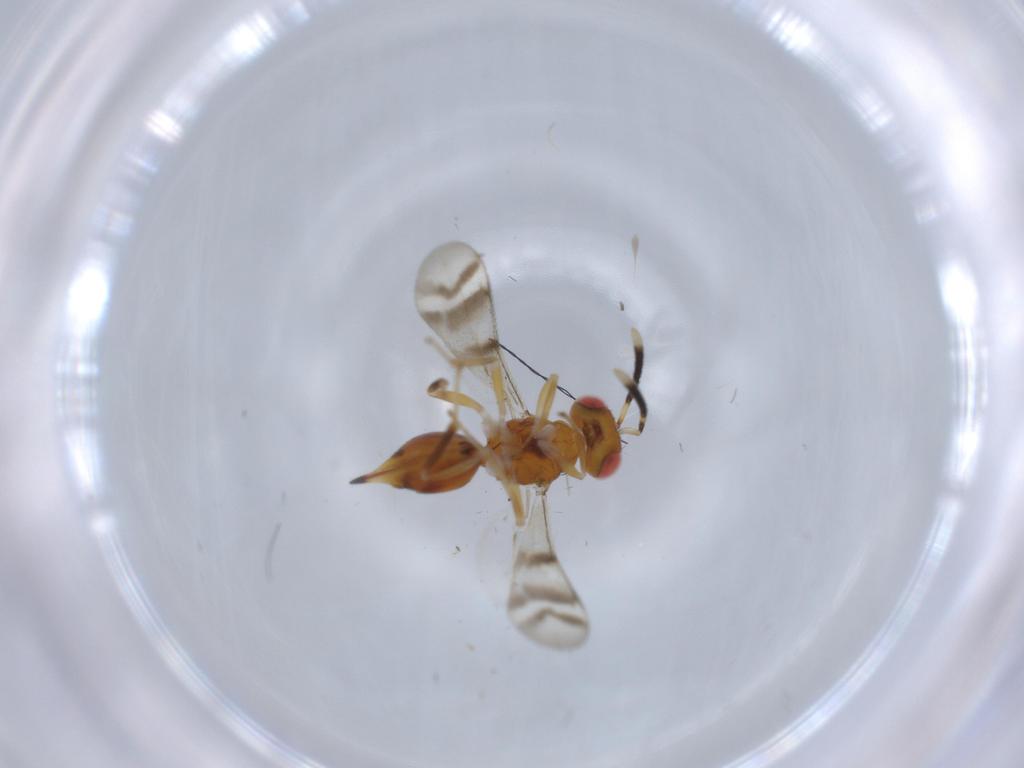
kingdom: Animalia
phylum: Arthropoda
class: Insecta
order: Hymenoptera
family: Diparidae
